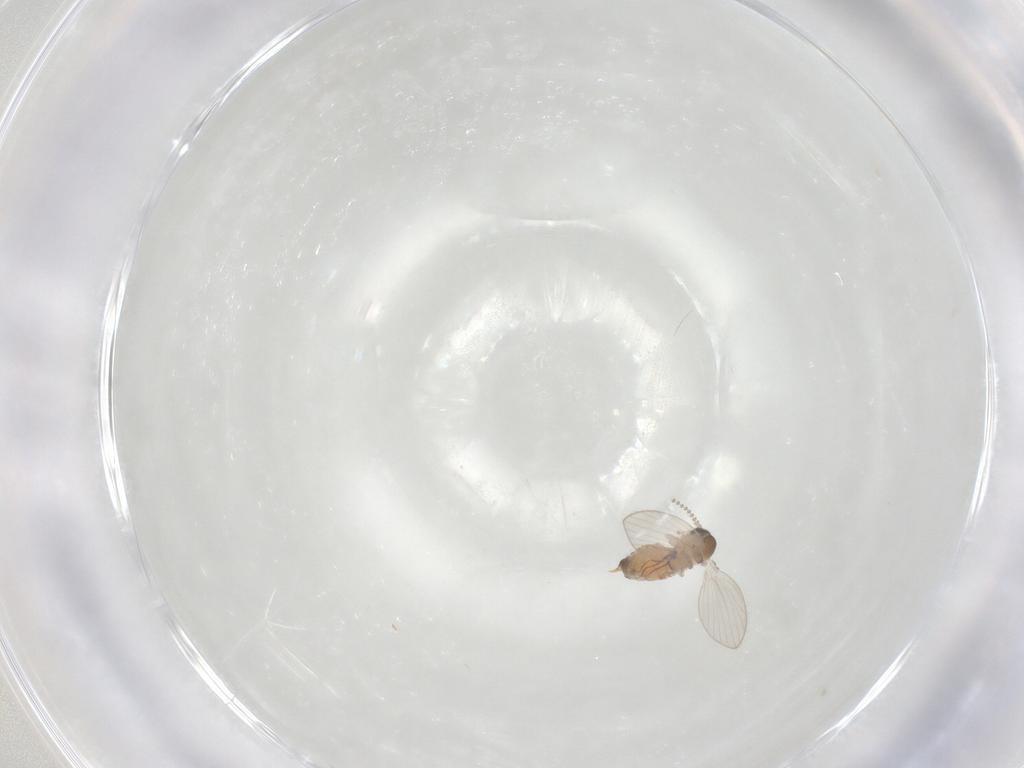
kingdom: Animalia
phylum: Arthropoda
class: Insecta
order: Diptera
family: Psychodidae
